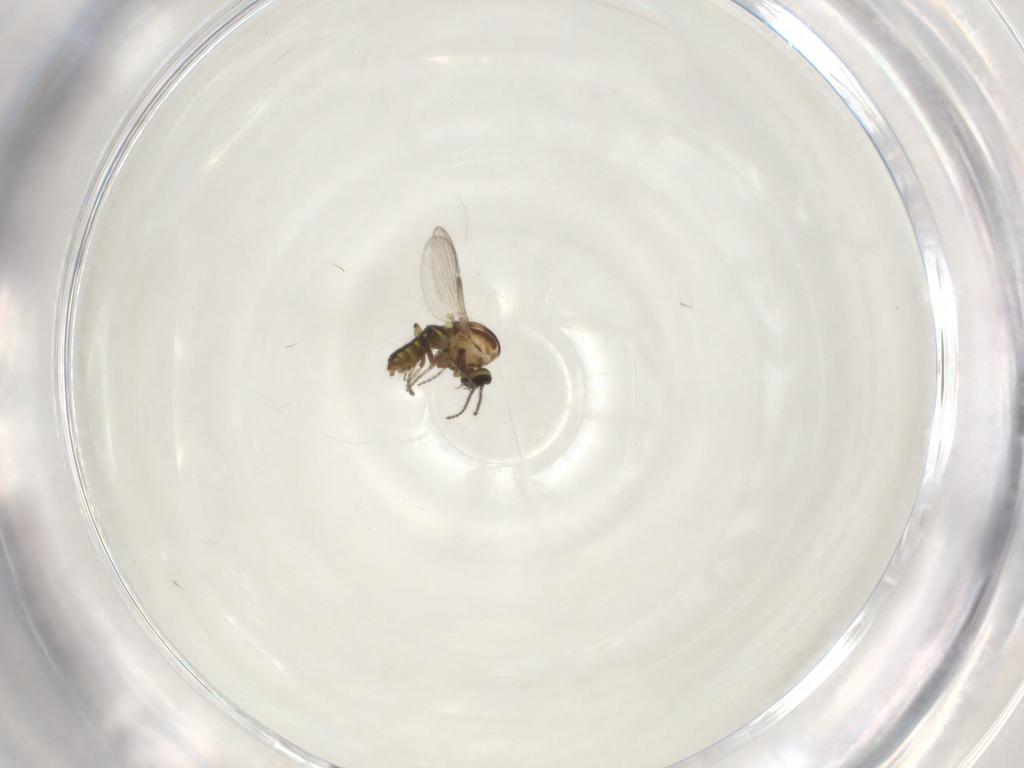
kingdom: Animalia
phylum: Arthropoda
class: Insecta
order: Diptera
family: Ceratopogonidae
